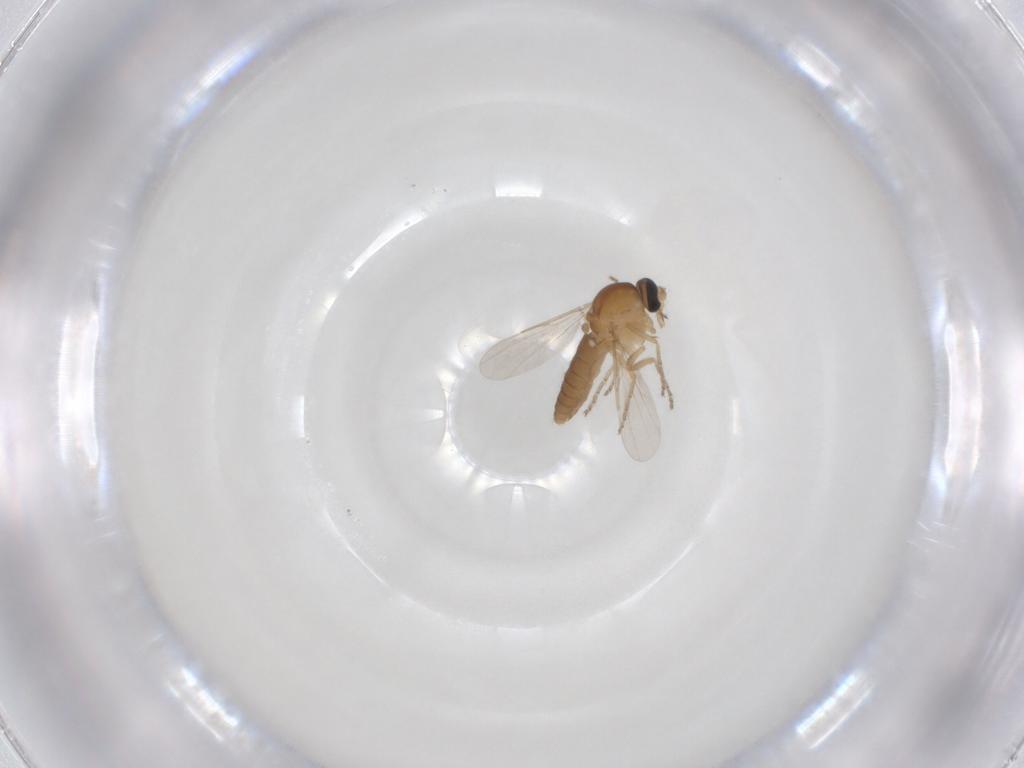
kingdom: Animalia
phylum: Arthropoda
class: Insecta
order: Diptera
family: Ceratopogonidae
